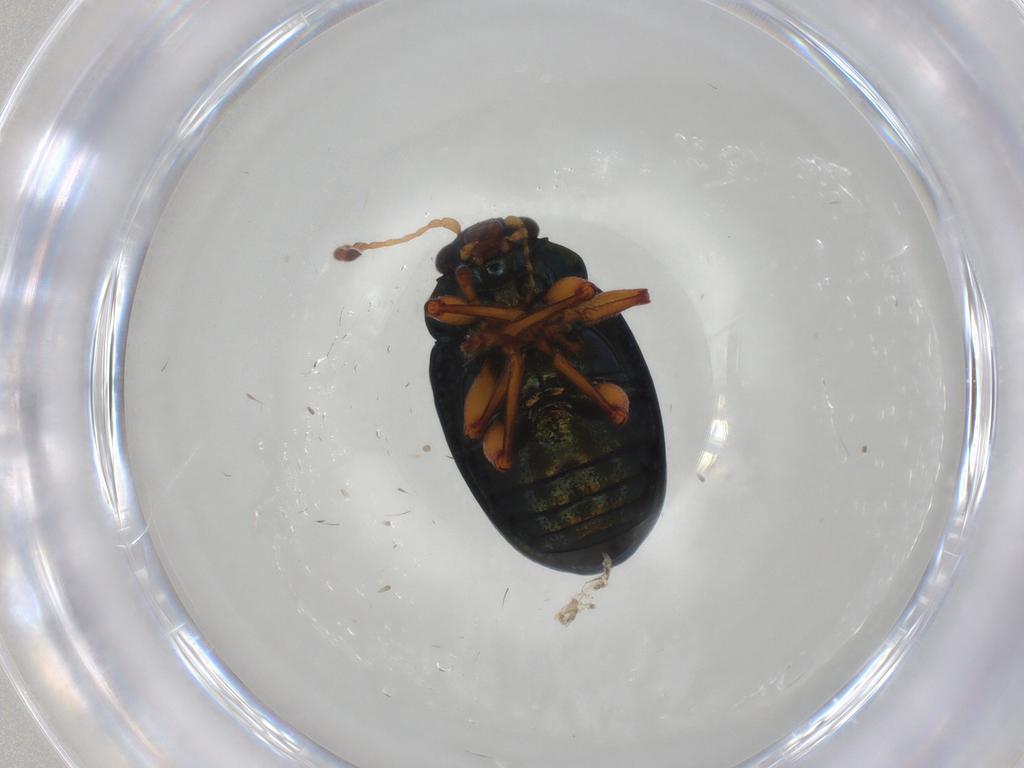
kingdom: Animalia
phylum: Arthropoda
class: Insecta
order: Coleoptera
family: Chrysomelidae
